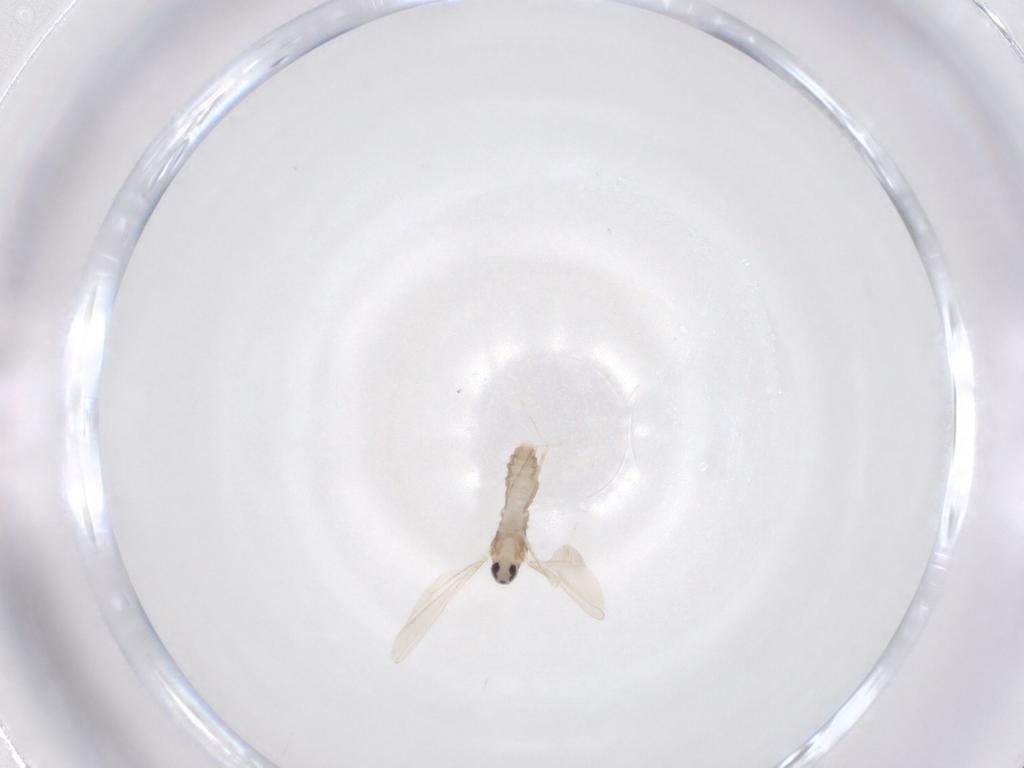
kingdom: Animalia
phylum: Arthropoda
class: Insecta
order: Diptera
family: Cecidomyiidae
